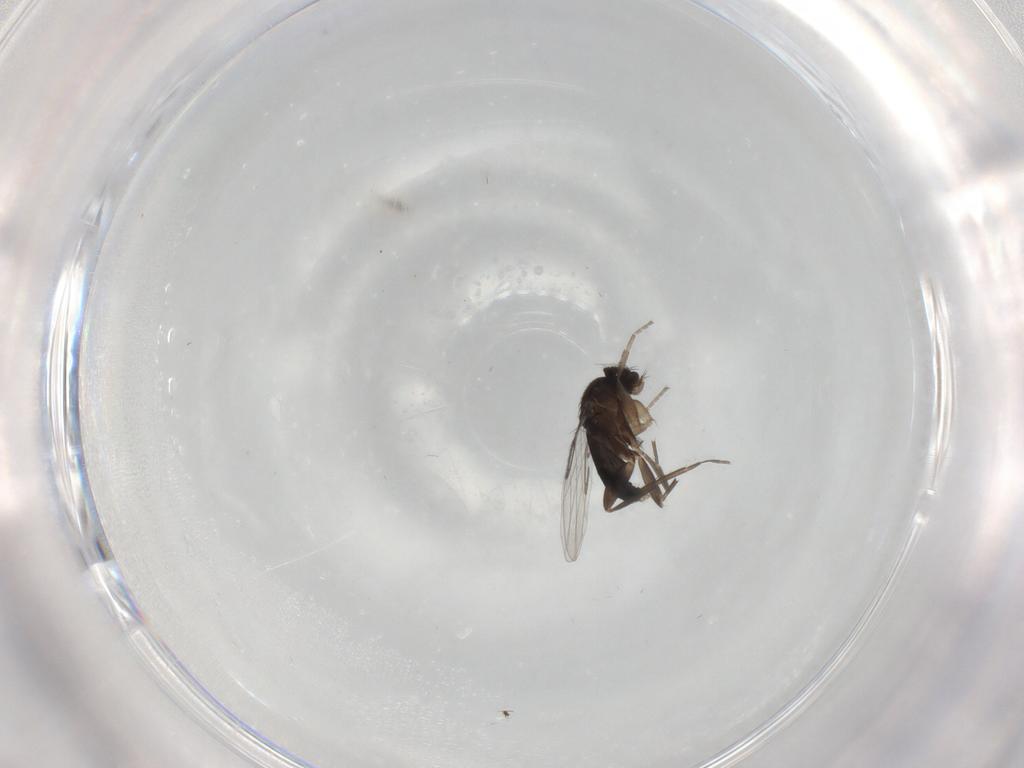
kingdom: Animalia
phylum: Arthropoda
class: Insecta
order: Diptera
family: Phoridae
